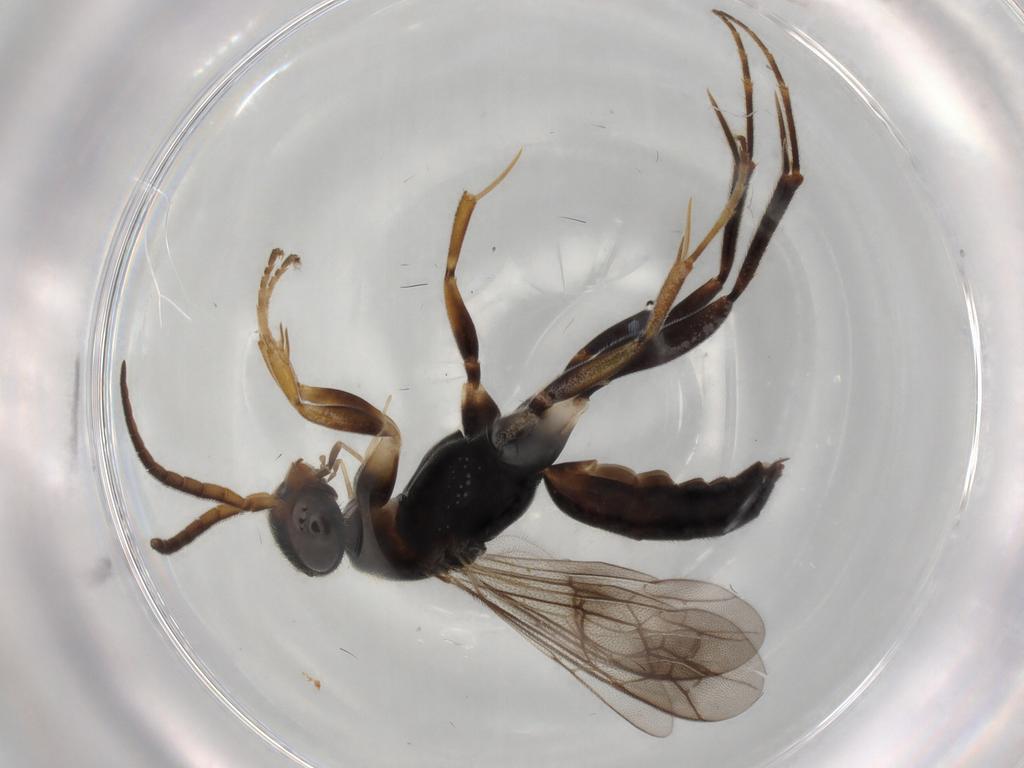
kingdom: Animalia
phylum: Arthropoda
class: Insecta
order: Hymenoptera
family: Pompilidae
